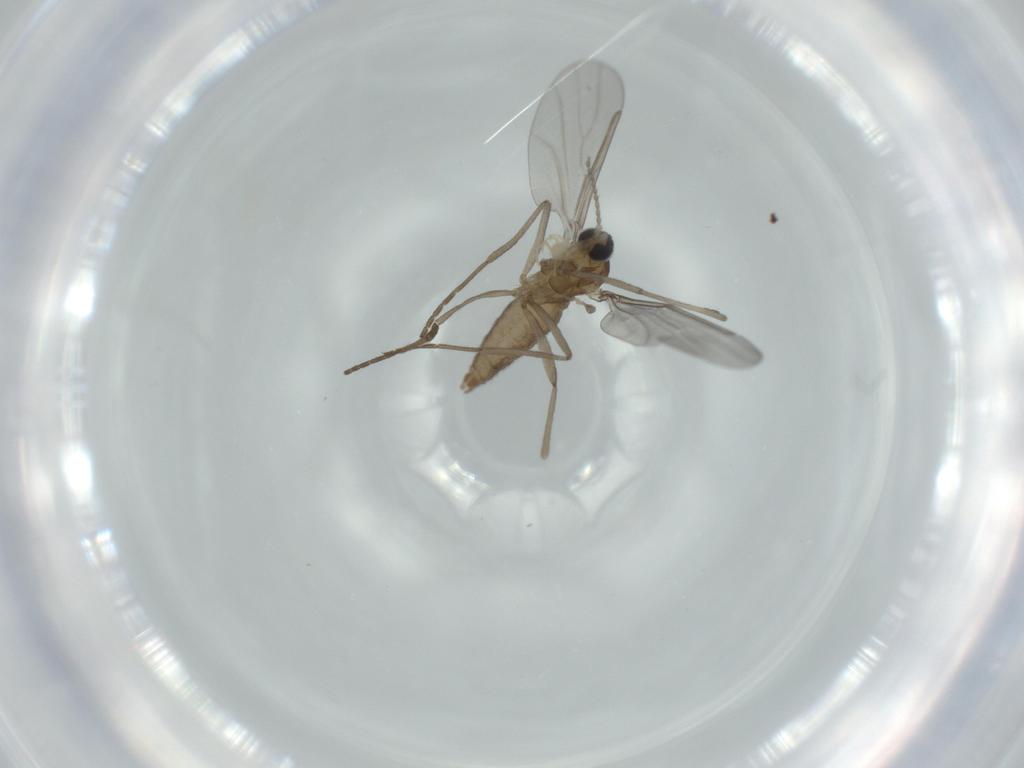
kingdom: Animalia
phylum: Arthropoda
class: Insecta
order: Diptera
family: Cecidomyiidae
